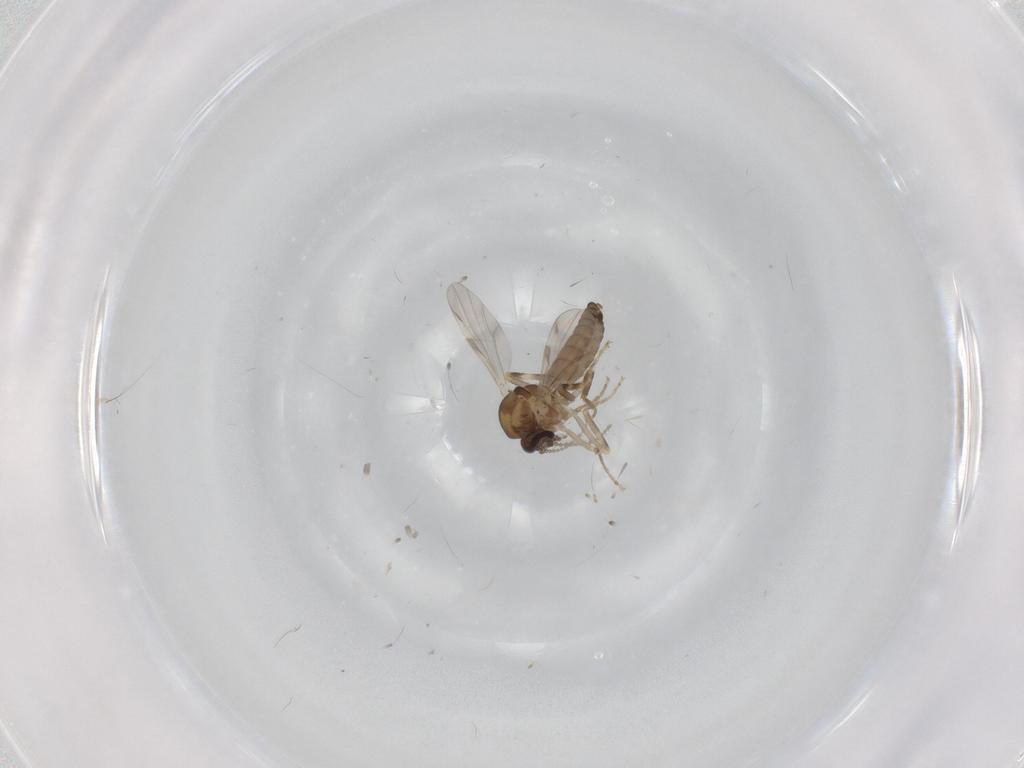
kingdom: Animalia
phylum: Arthropoda
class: Insecta
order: Diptera
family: Ceratopogonidae
